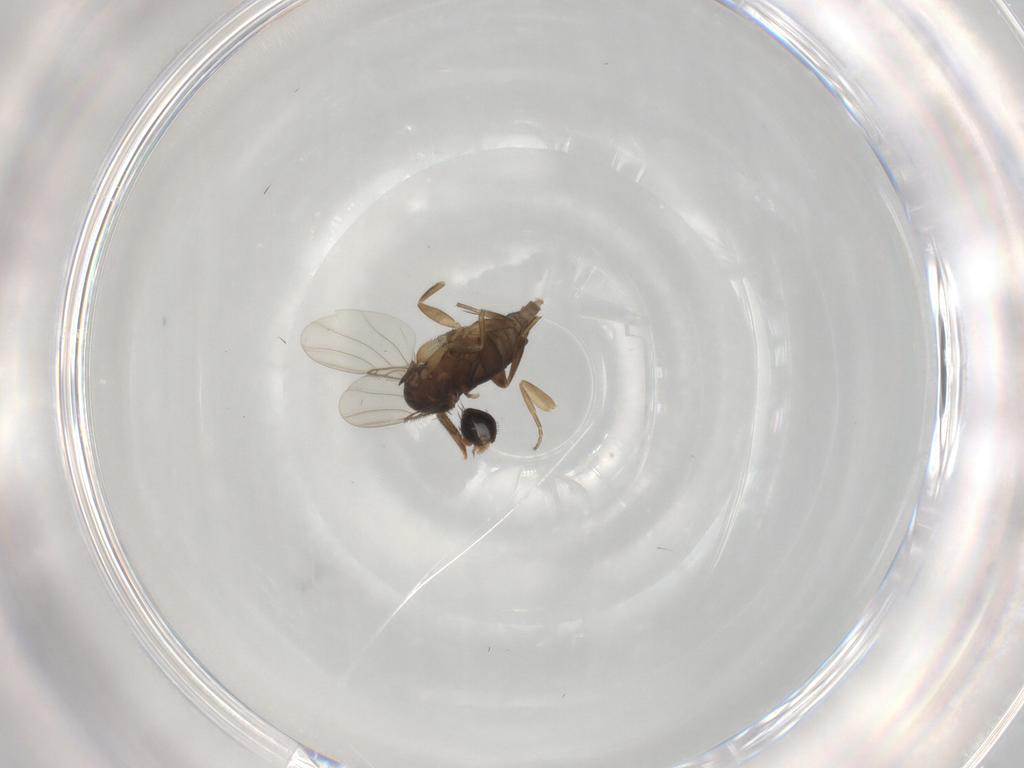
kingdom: Animalia
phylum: Arthropoda
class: Insecta
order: Diptera
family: Phoridae
